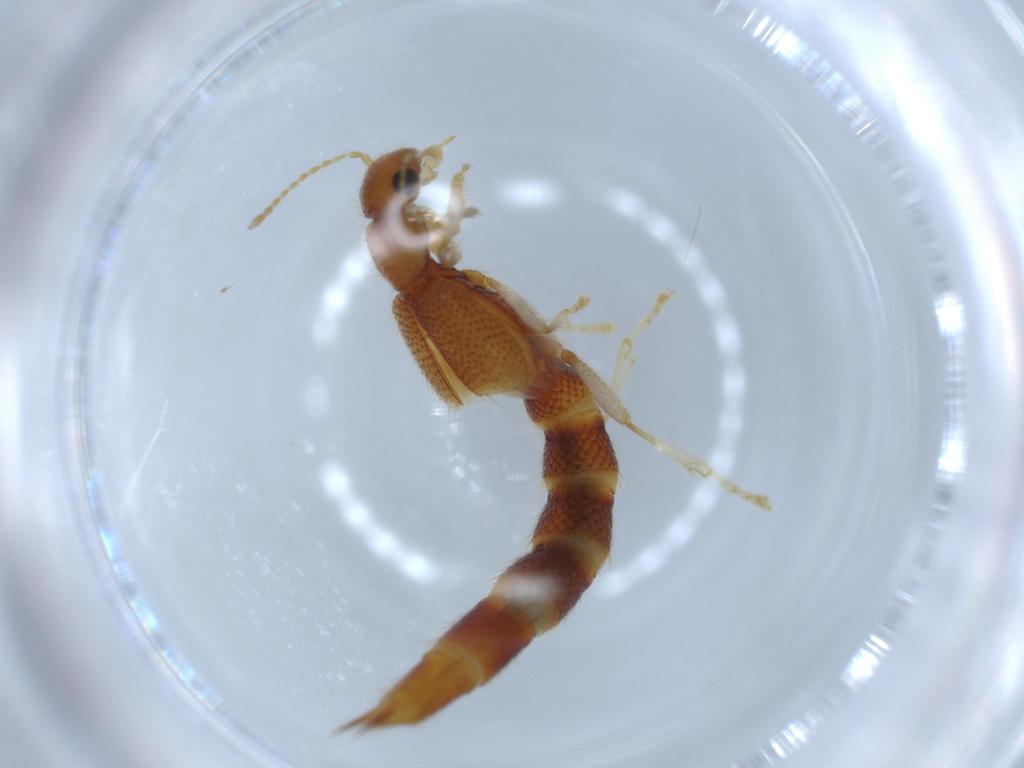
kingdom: Animalia
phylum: Arthropoda
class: Insecta
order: Coleoptera
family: Staphylinidae
